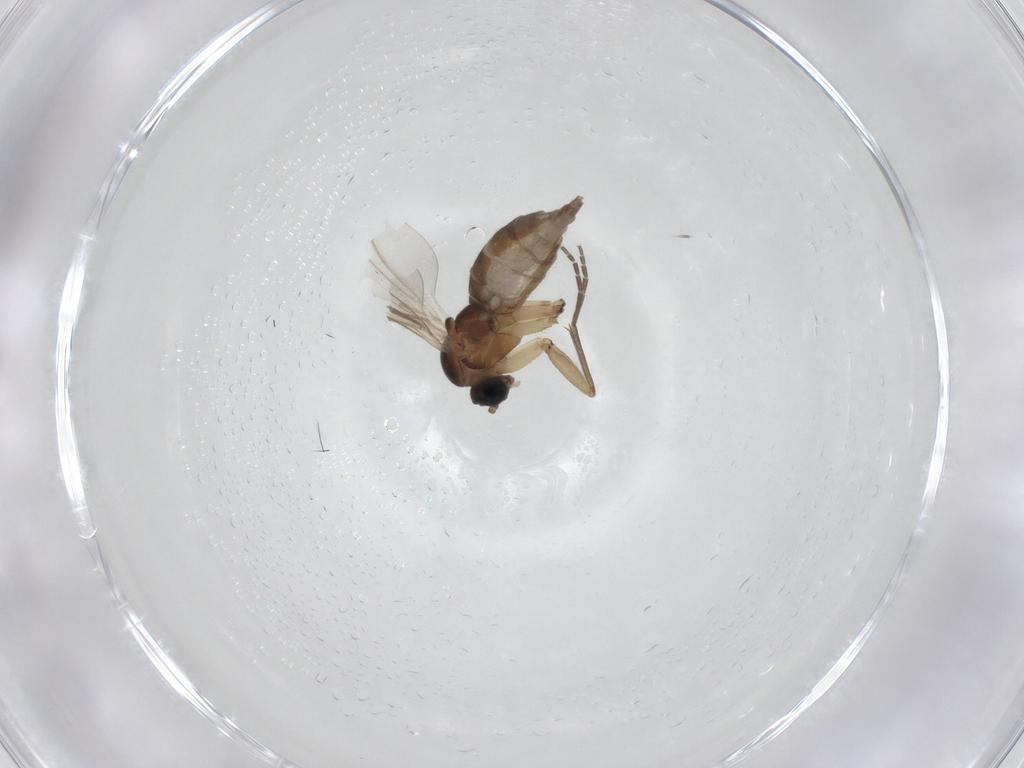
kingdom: Animalia
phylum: Arthropoda
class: Insecta
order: Diptera
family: Sciaridae
